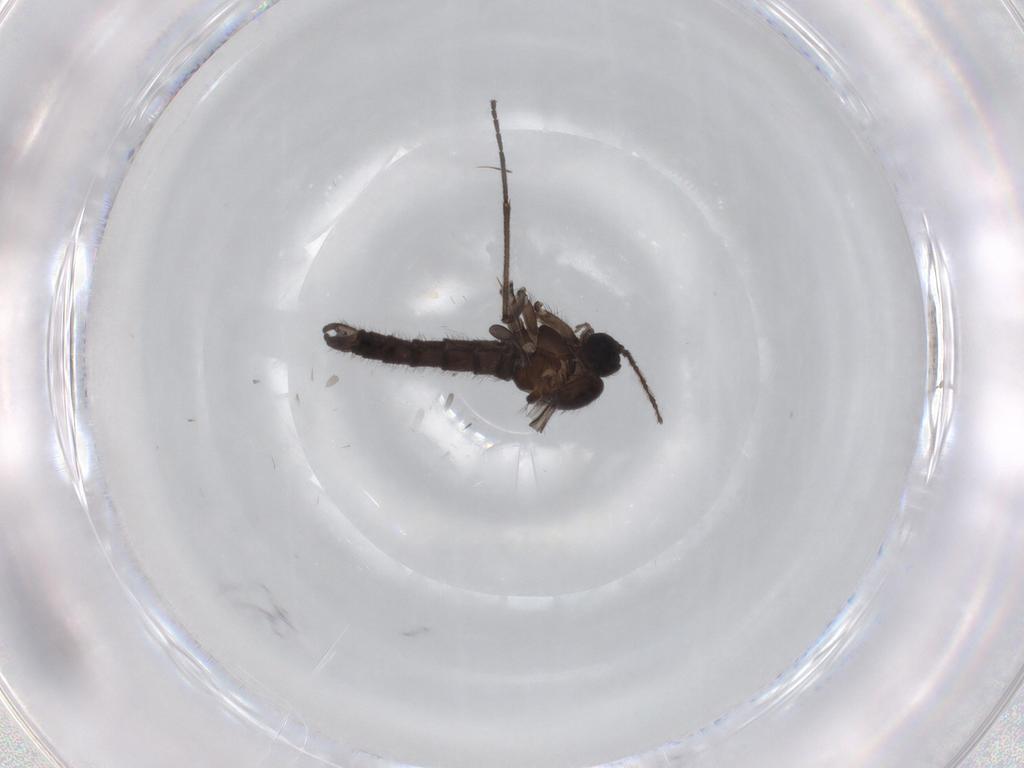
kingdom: Animalia
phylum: Arthropoda
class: Insecta
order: Diptera
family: Sciaridae
